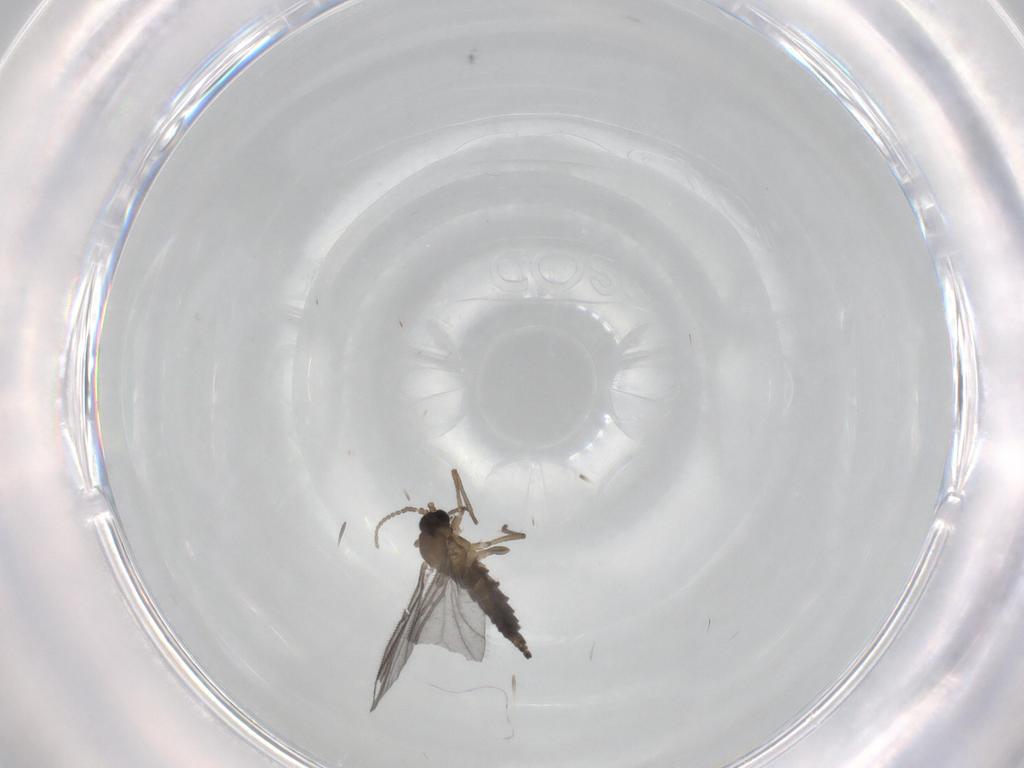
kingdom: Animalia
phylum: Arthropoda
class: Insecta
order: Diptera
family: Sciaridae
